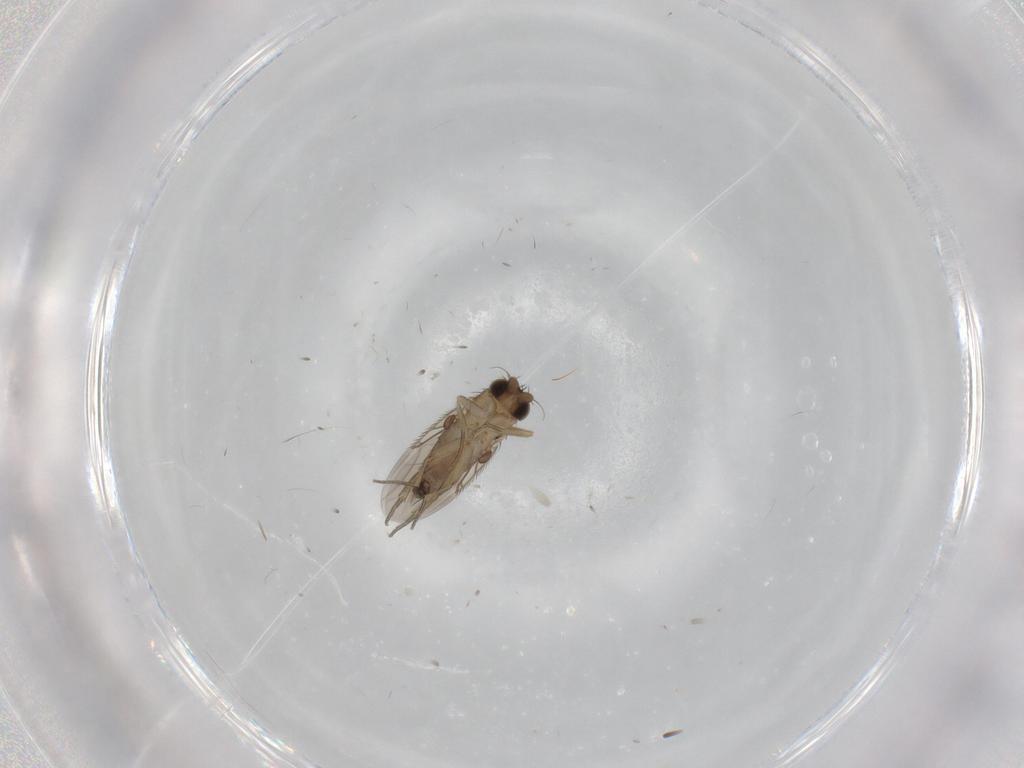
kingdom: Animalia
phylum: Arthropoda
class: Insecta
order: Diptera
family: Phoridae
